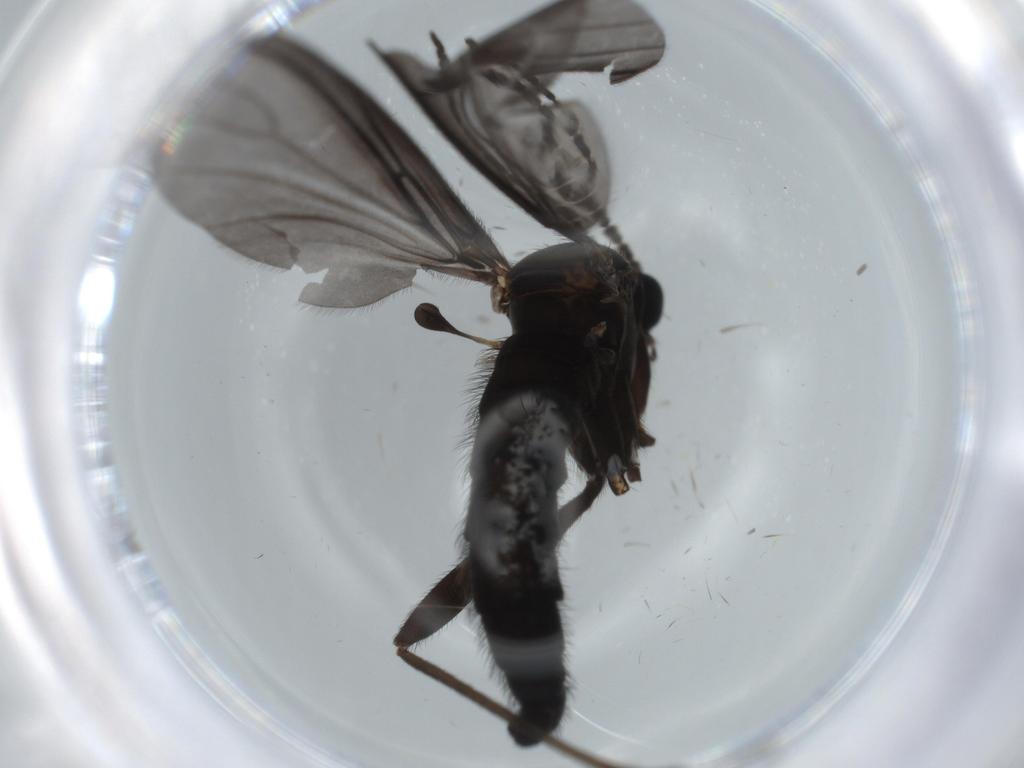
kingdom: Animalia
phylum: Arthropoda
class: Insecta
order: Diptera
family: Sciaridae
